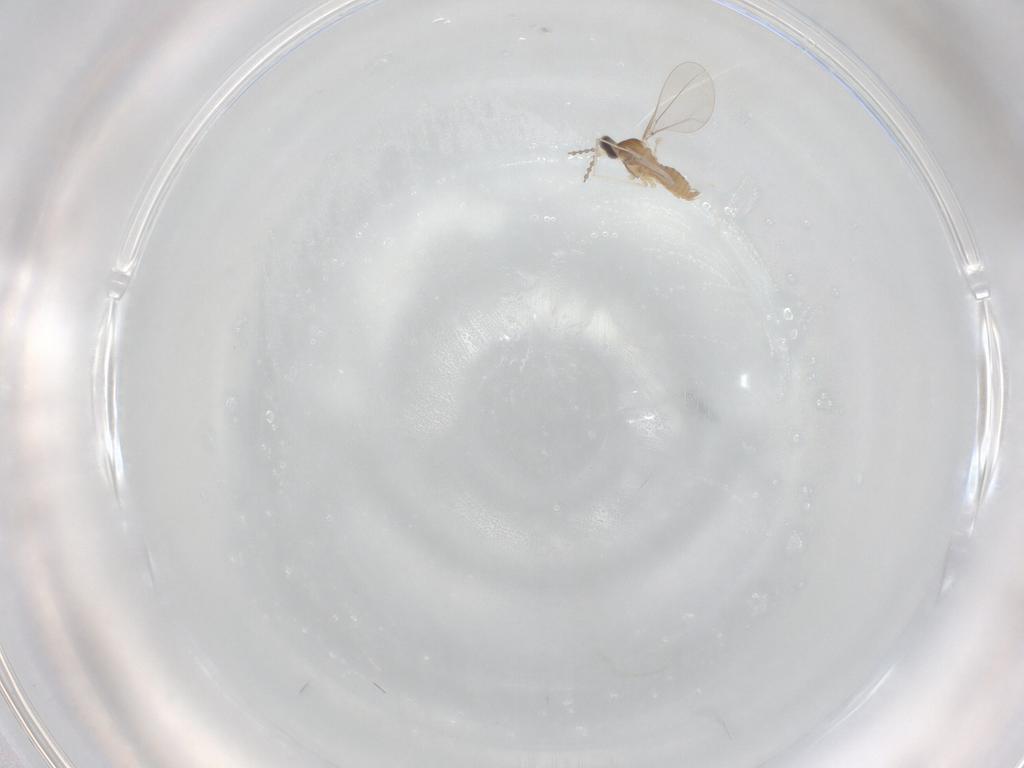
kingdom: Animalia
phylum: Arthropoda
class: Insecta
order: Diptera
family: Cecidomyiidae
